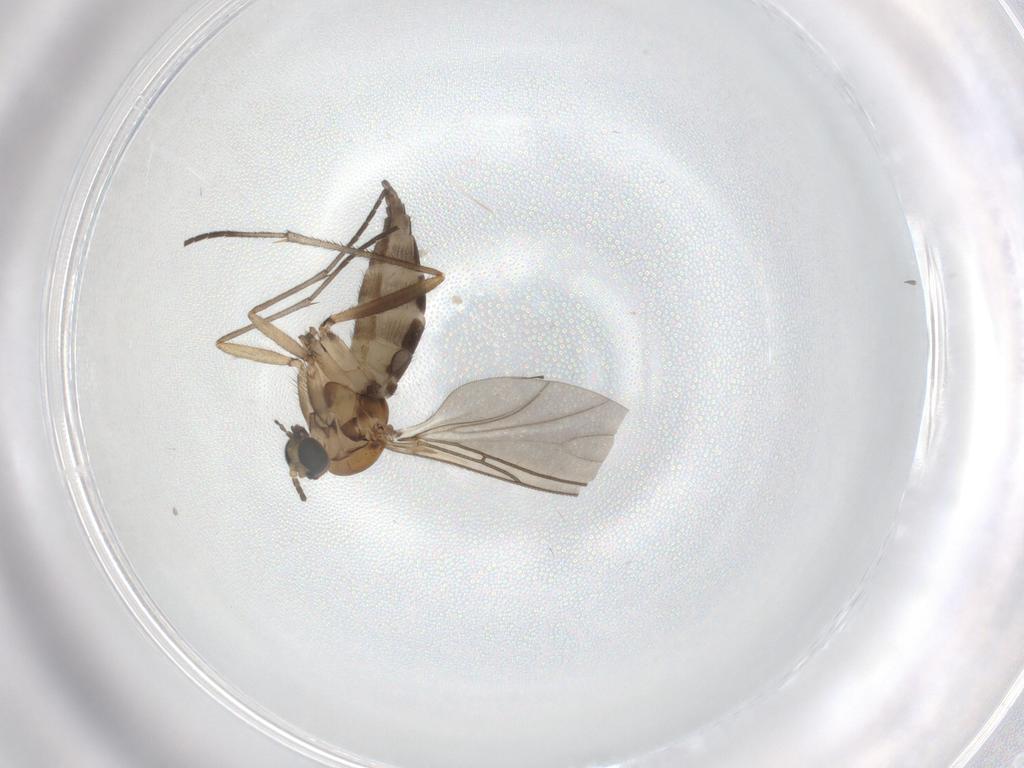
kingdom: Animalia
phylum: Arthropoda
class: Insecta
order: Diptera
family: Sciaridae
